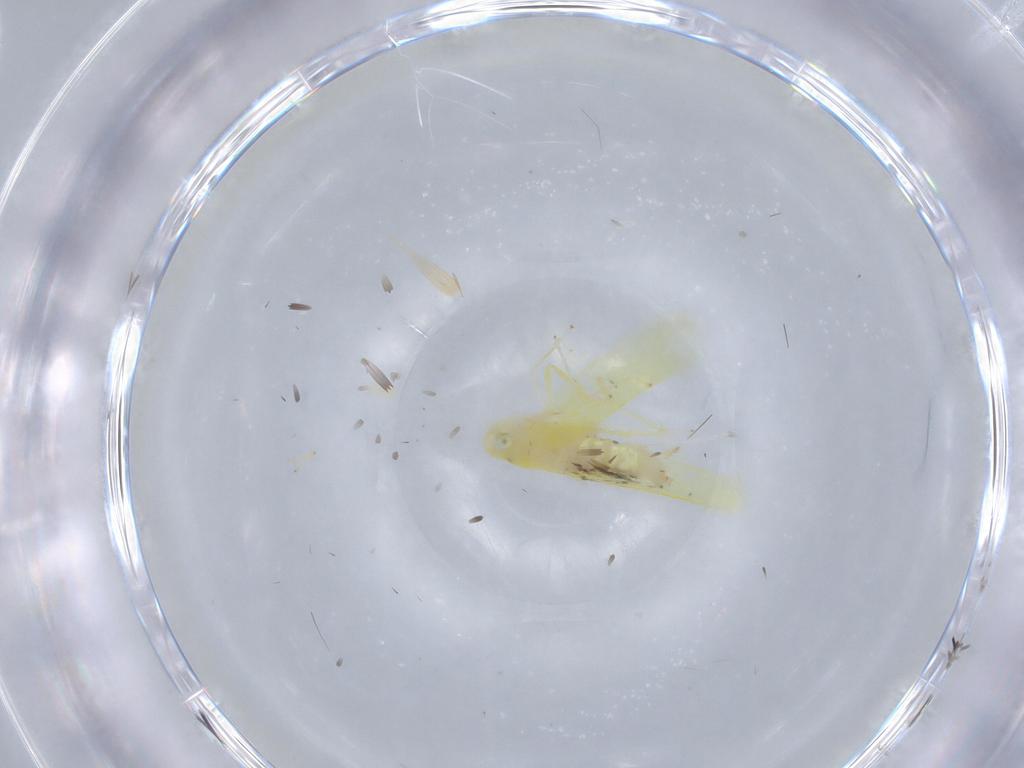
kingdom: Animalia
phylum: Arthropoda
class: Insecta
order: Hemiptera
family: Cicadellidae
